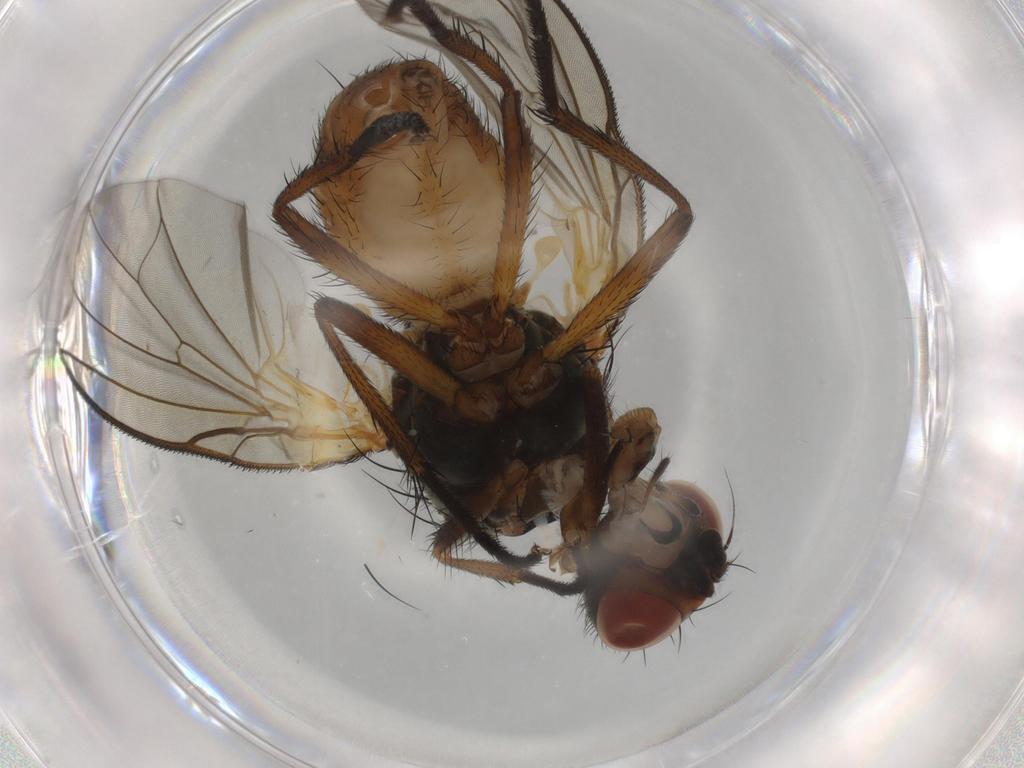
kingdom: Animalia
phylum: Arthropoda
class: Insecta
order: Diptera
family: Anthomyiidae
